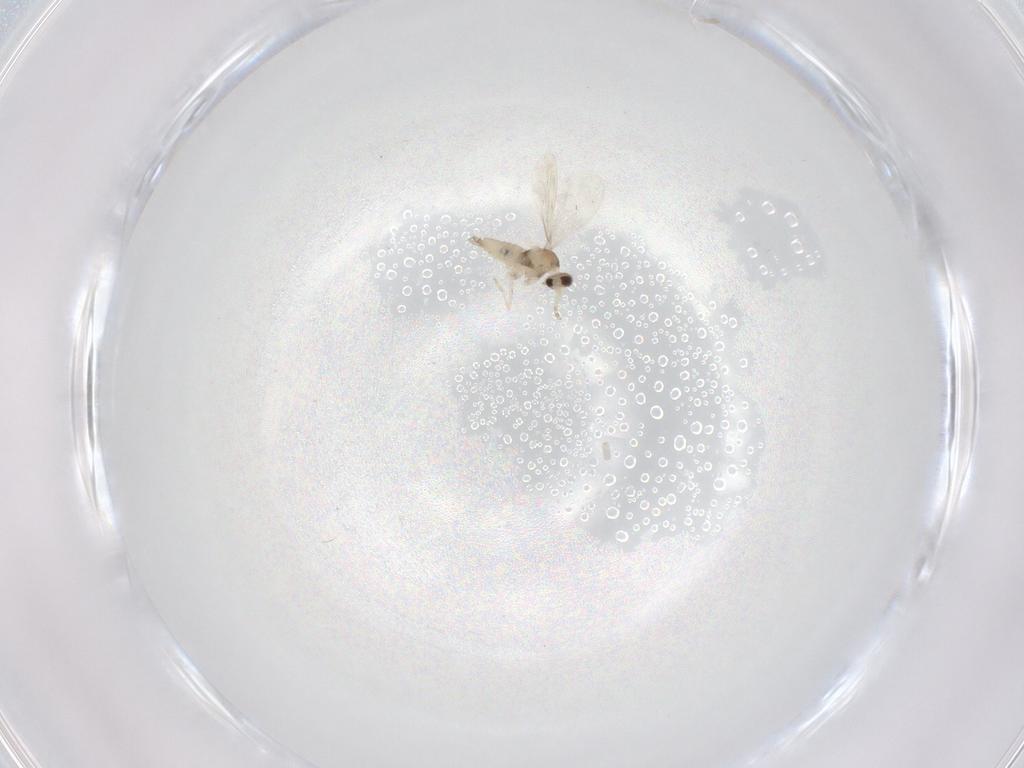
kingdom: Animalia
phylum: Arthropoda
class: Insecta
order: Diptera
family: Cecidomyiidae
